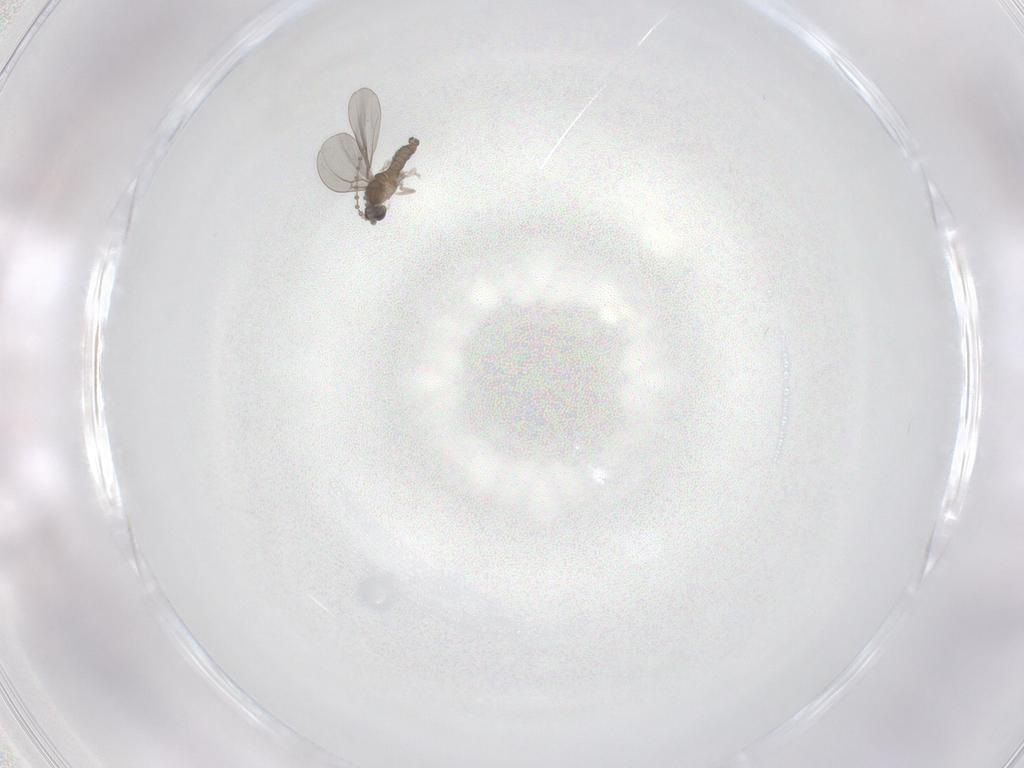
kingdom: Animalia
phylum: Arthropoda
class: Insecta
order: Diptera
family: Cecidomyiidae
